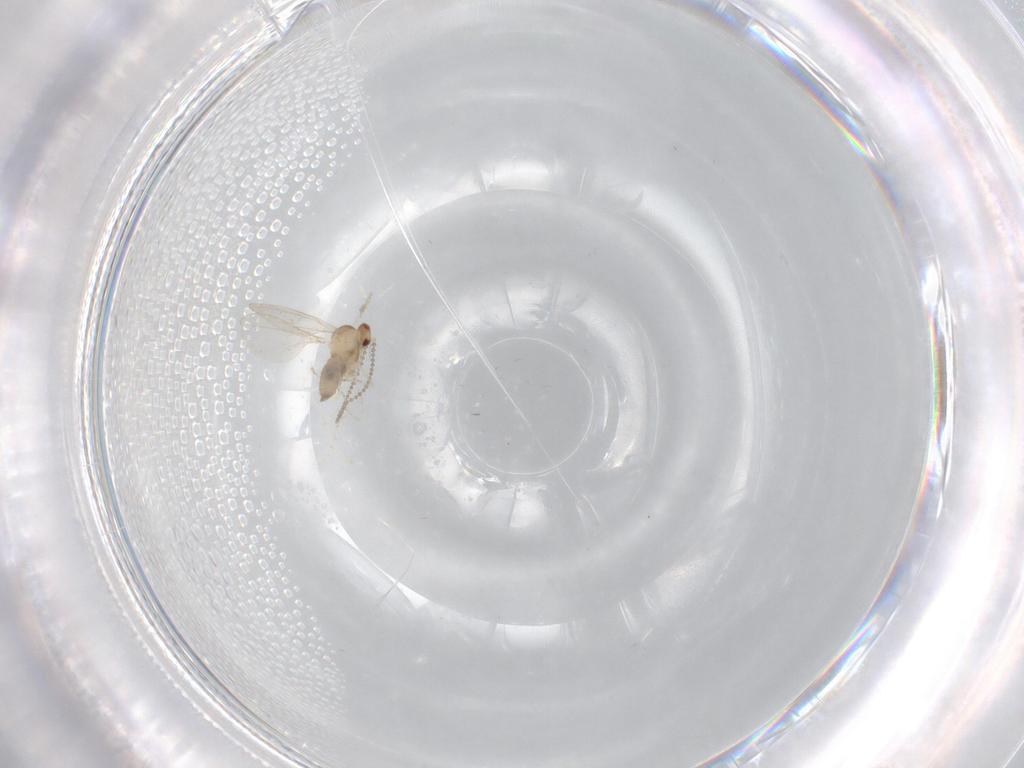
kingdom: Animalia
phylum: Arthropoda
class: Insecta
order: Diptera
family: Cecidomyiidae
